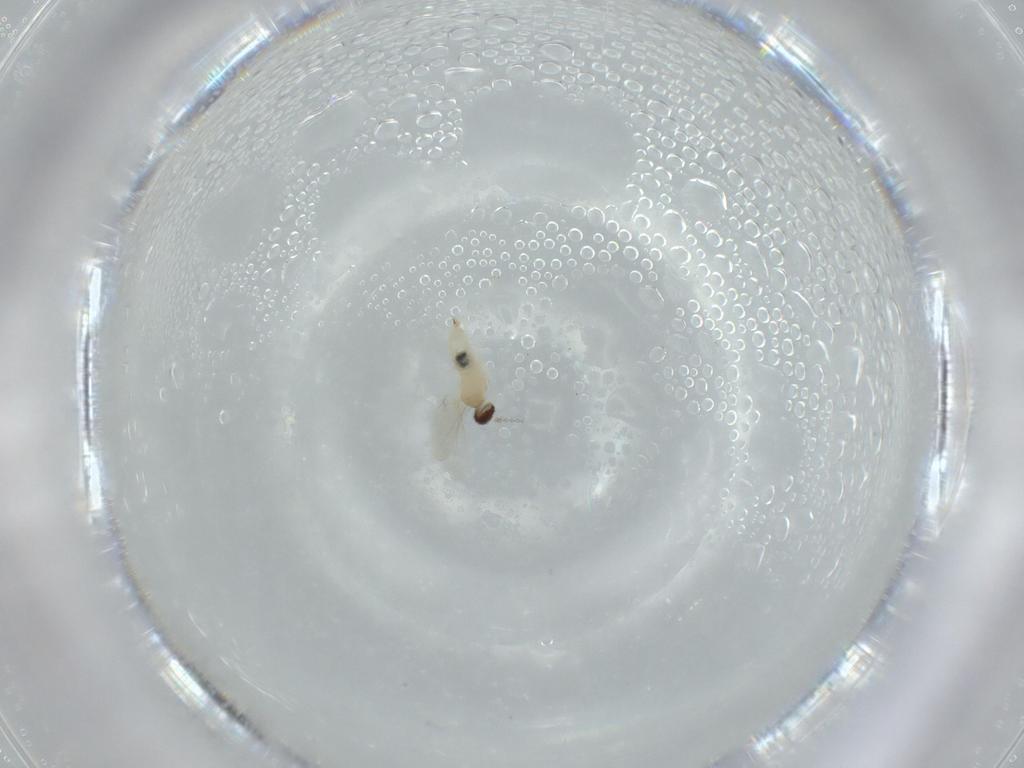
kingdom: Animalia
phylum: Arthropoda
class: Insecta
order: Diptera
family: Cecidomyiidae
